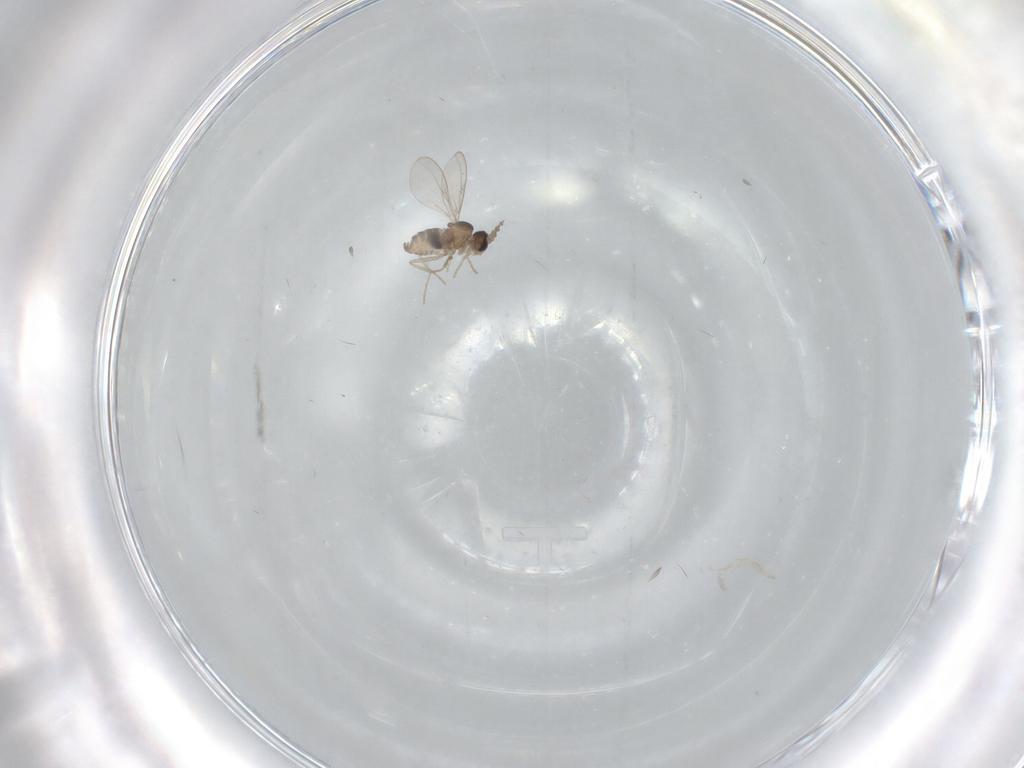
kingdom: Animalia
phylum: Arthropoda
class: Insecta
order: Diptera
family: Cecidomyiidae
